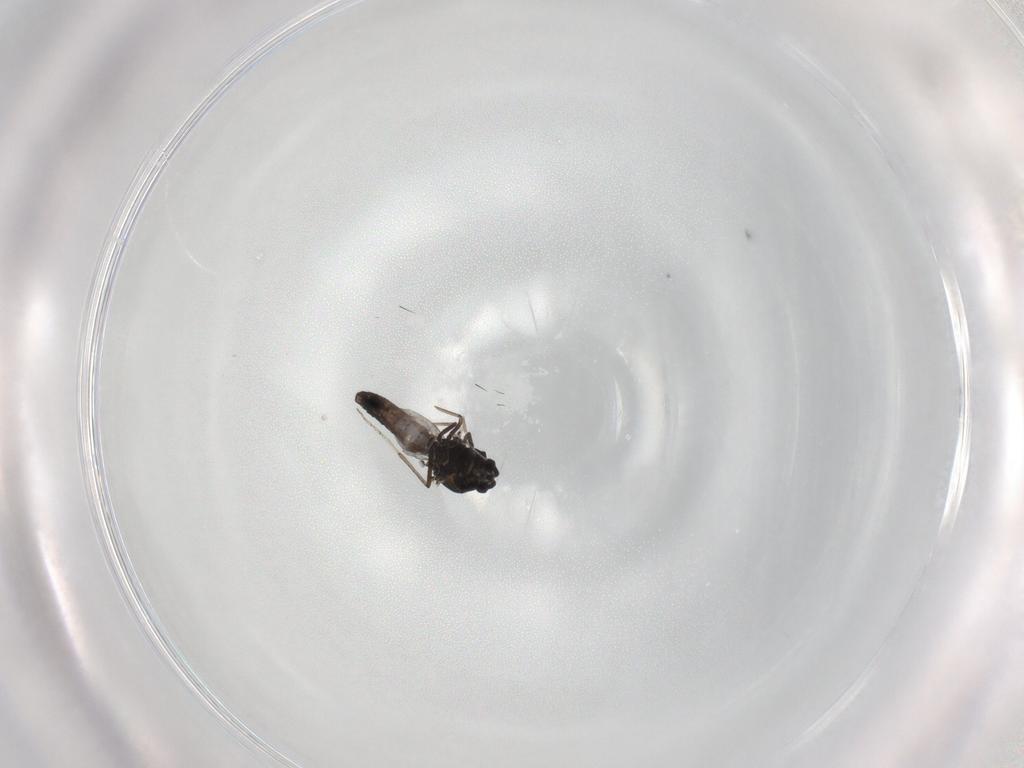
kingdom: Animalia
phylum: Arthropoda
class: Insecta
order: Diptera
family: Ceratopogonidae
